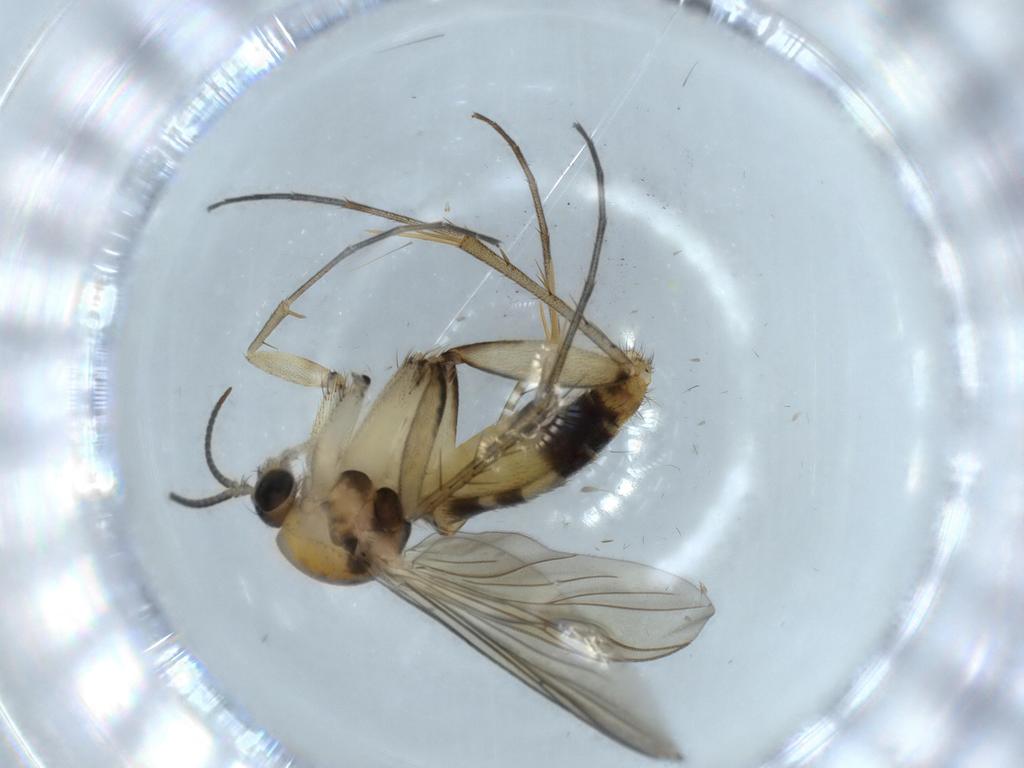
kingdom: Animalia
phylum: Arthropoda
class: Insecta
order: Diptera
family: Mycetophilidae
